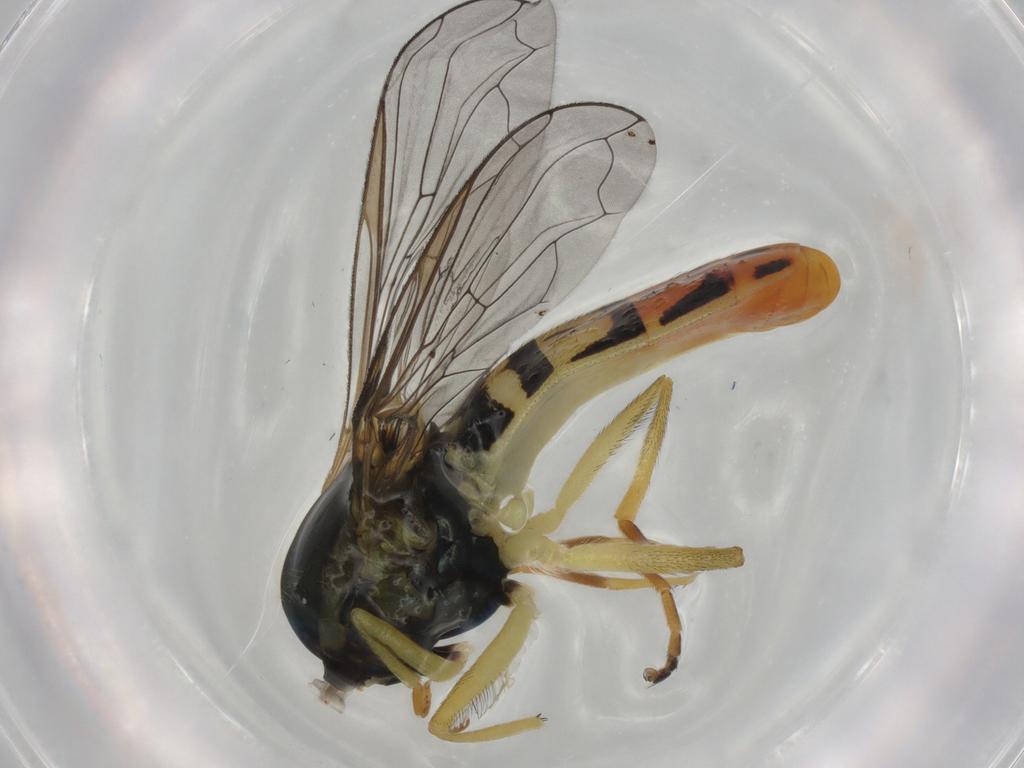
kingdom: Animalia
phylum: Arthropoda
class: Insecta
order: Diptera
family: Syrphidae
